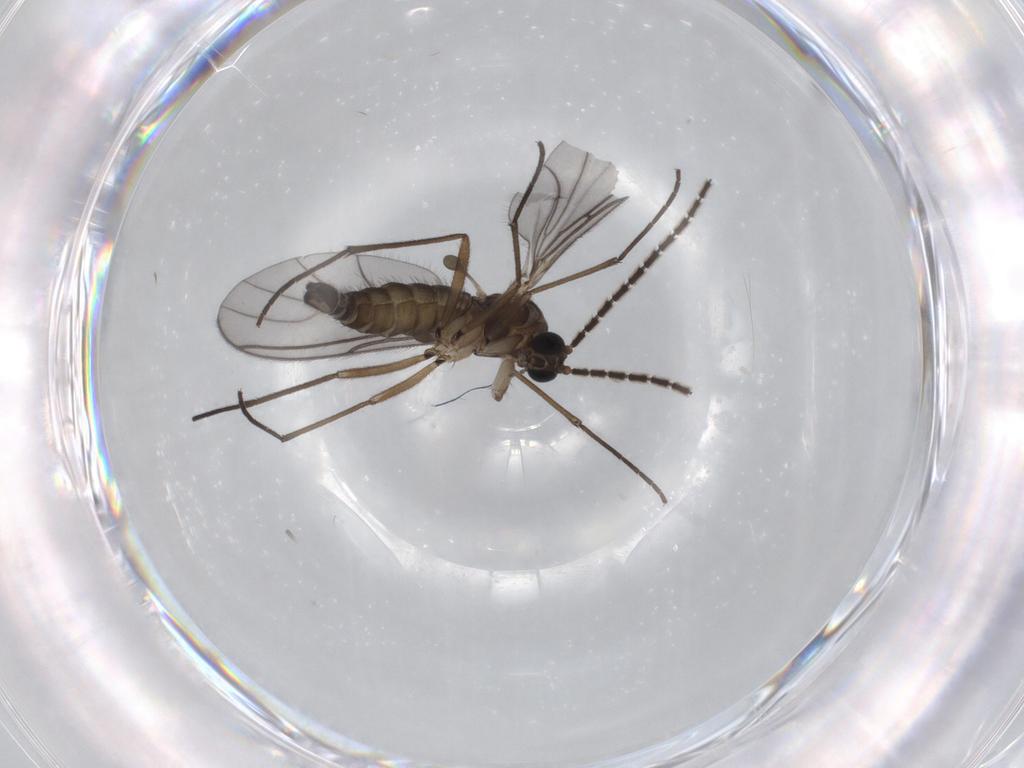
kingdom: Animalia
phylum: Arthropoda
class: Insecta
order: Diptera
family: Sciaridae
